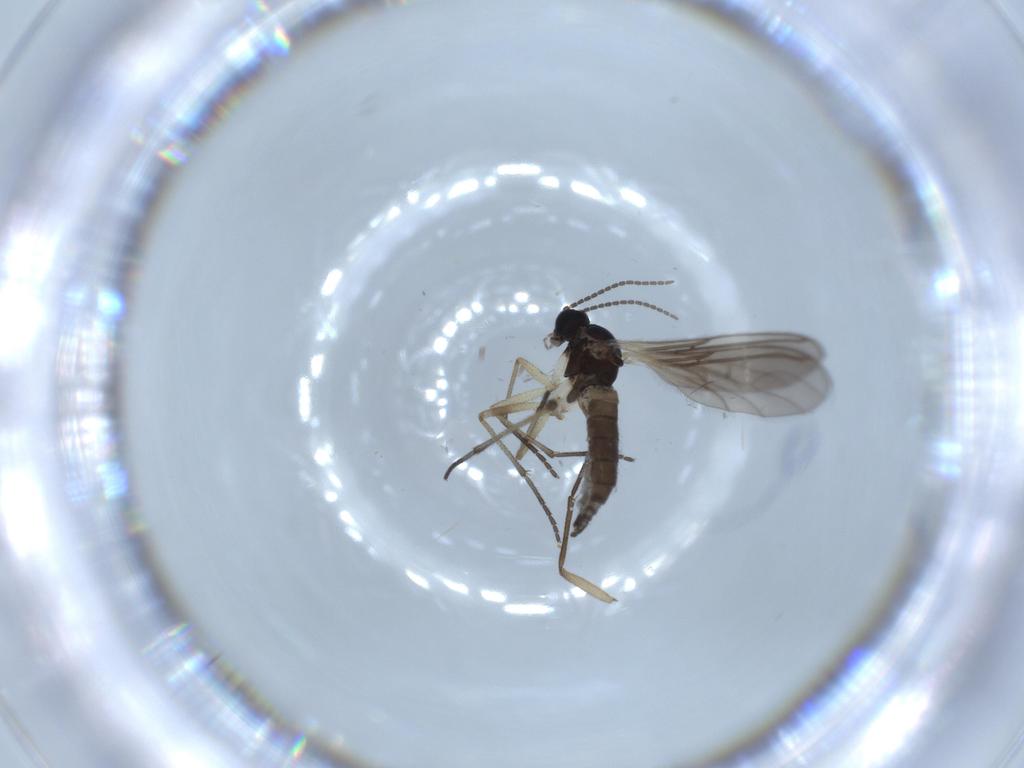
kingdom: Animalia
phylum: Arthropoda
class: Insecta
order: Diptera
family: Sciaridae
